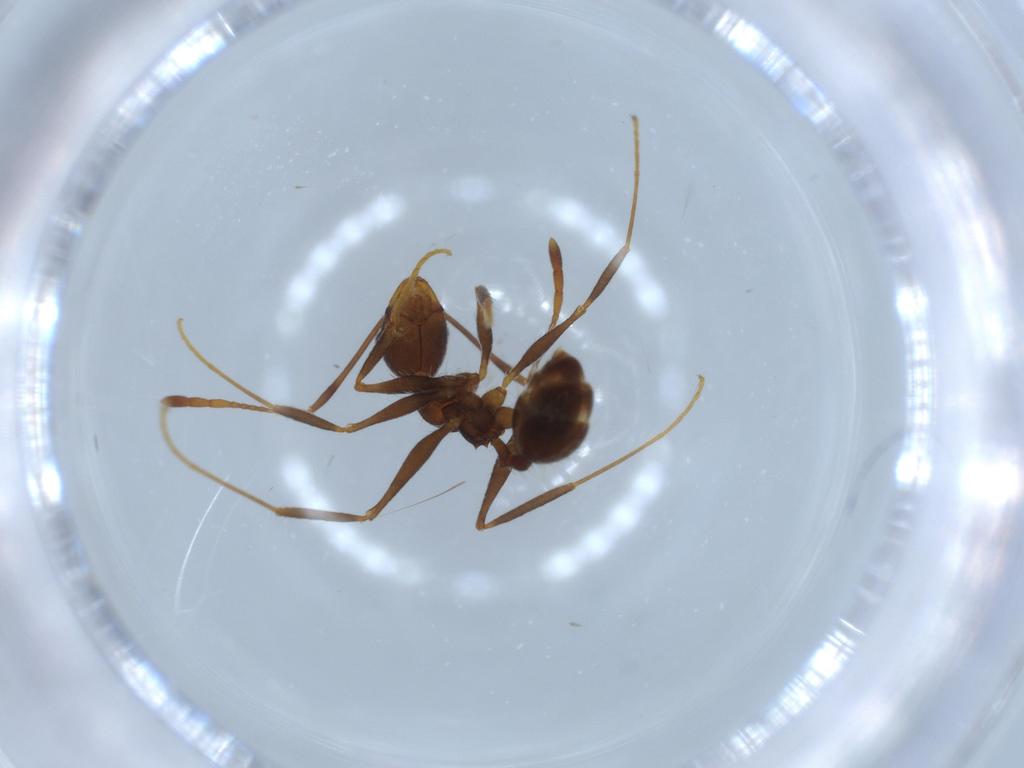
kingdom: Animalia
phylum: Arthropoda
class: Insecta
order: Hymenoptera
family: Formicidae
